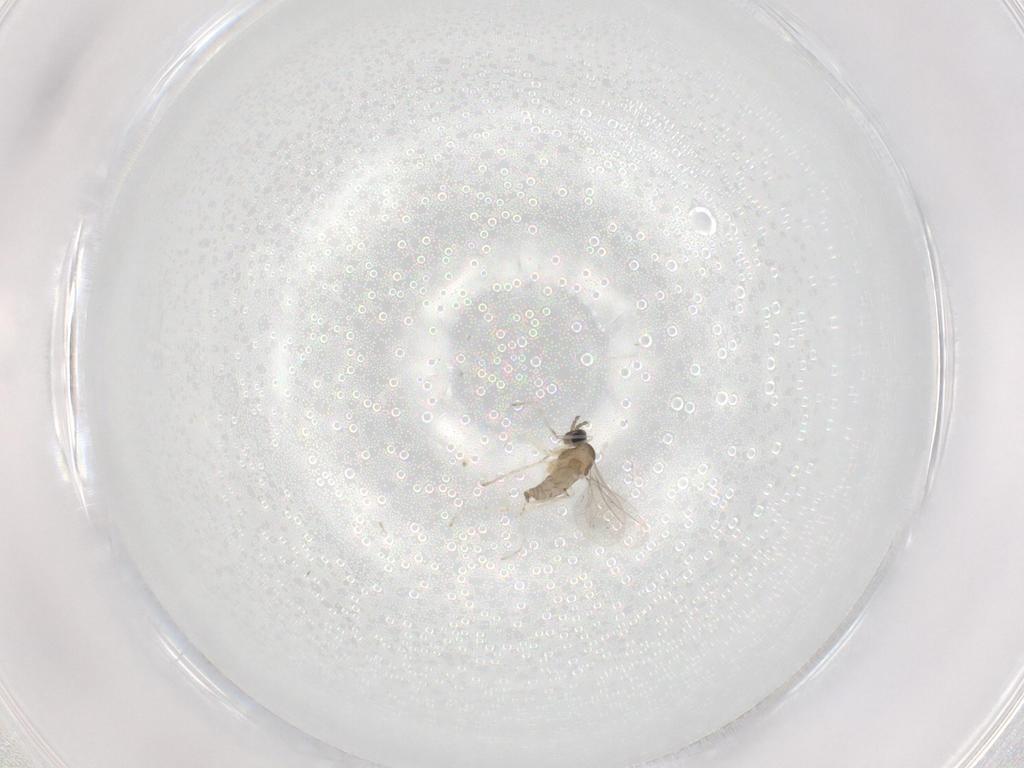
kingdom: Animalia
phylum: Arthropoda
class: Insecta
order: Diptera
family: Cecidomyiidae
